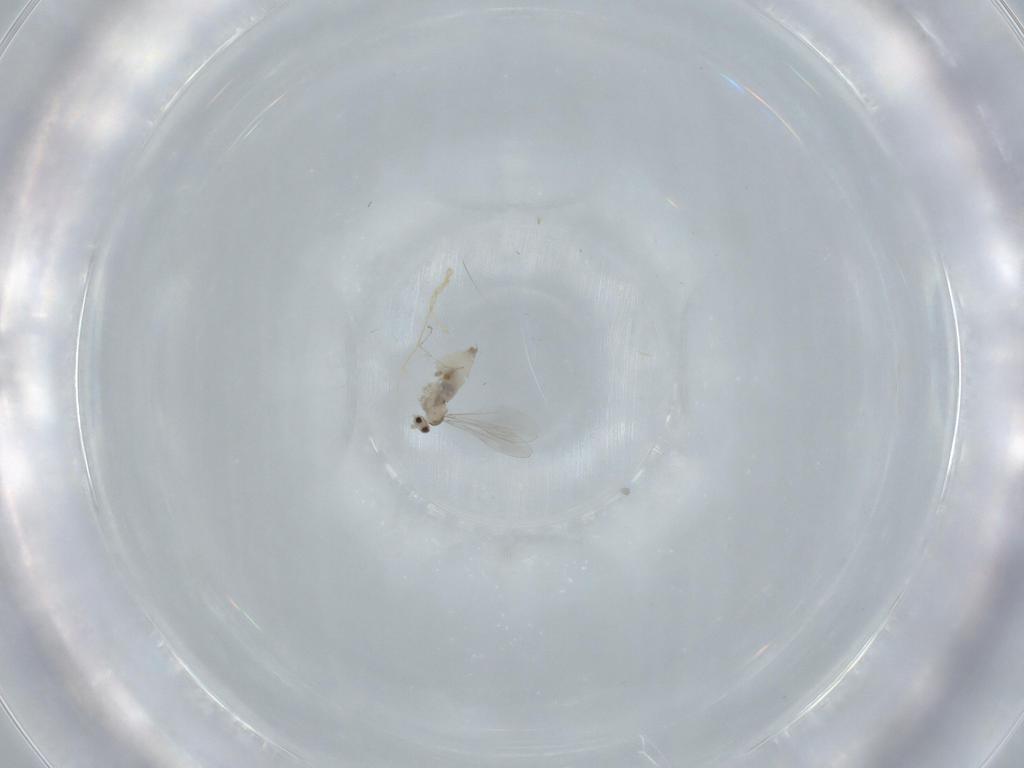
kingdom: Animalia
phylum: Arthropoda
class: Insecta
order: Diptera
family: Cecidomyiidae
